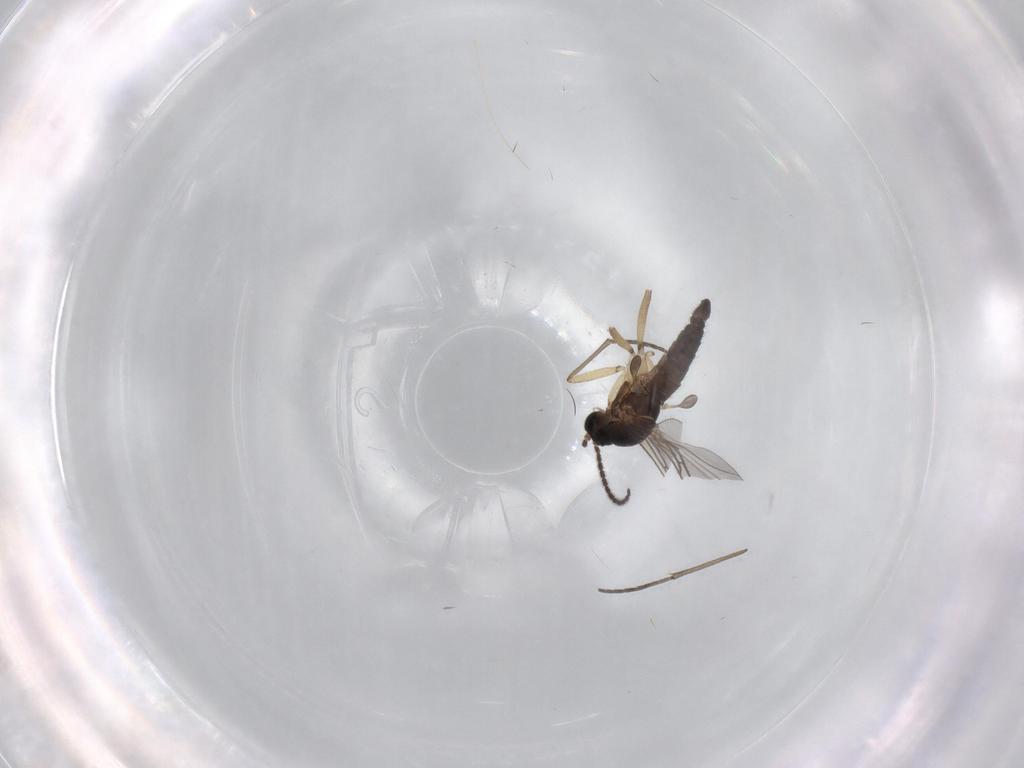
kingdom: Animalia
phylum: Arthropoda
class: Insecta
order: Diptera
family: Sciaridae
